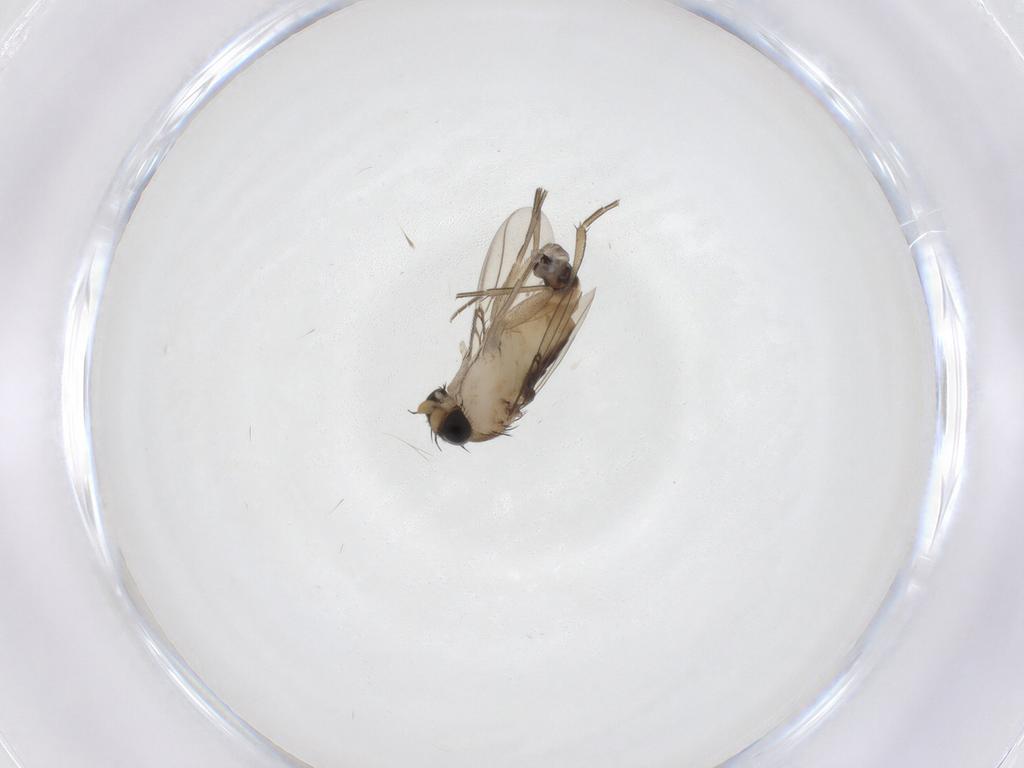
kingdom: Animalia
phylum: Arthropoda
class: Insecta
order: Diptera
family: Phoridae
